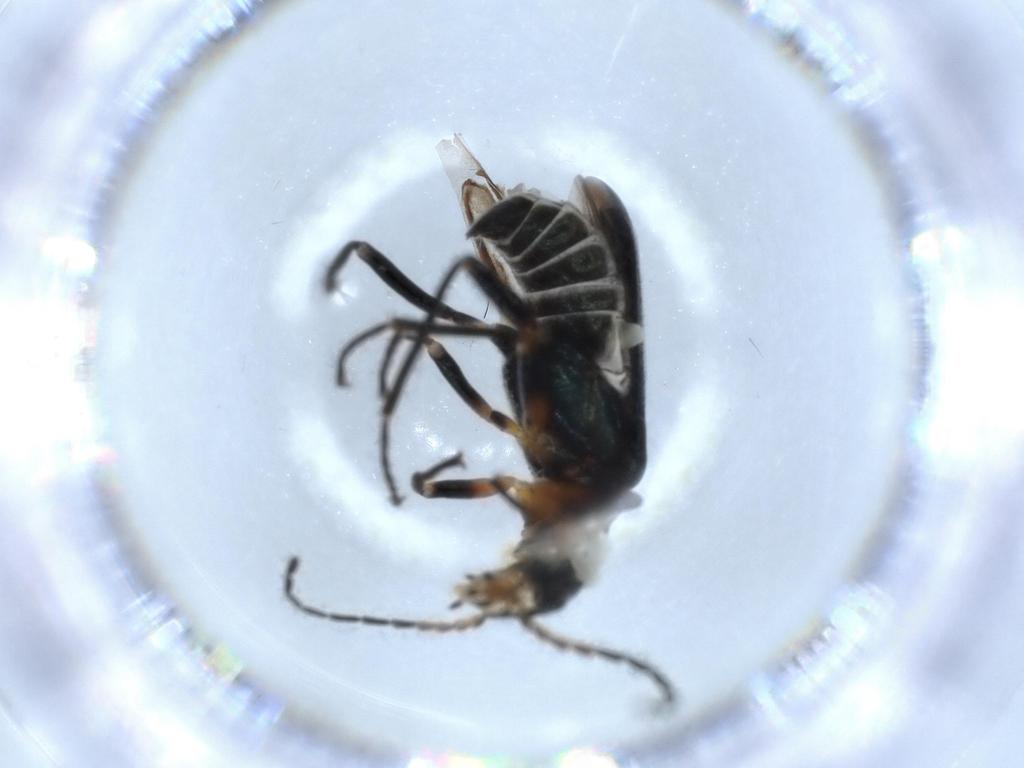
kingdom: Animalia
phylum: Arthropoda
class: Insecta
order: Coleoptera
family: Melyridae
